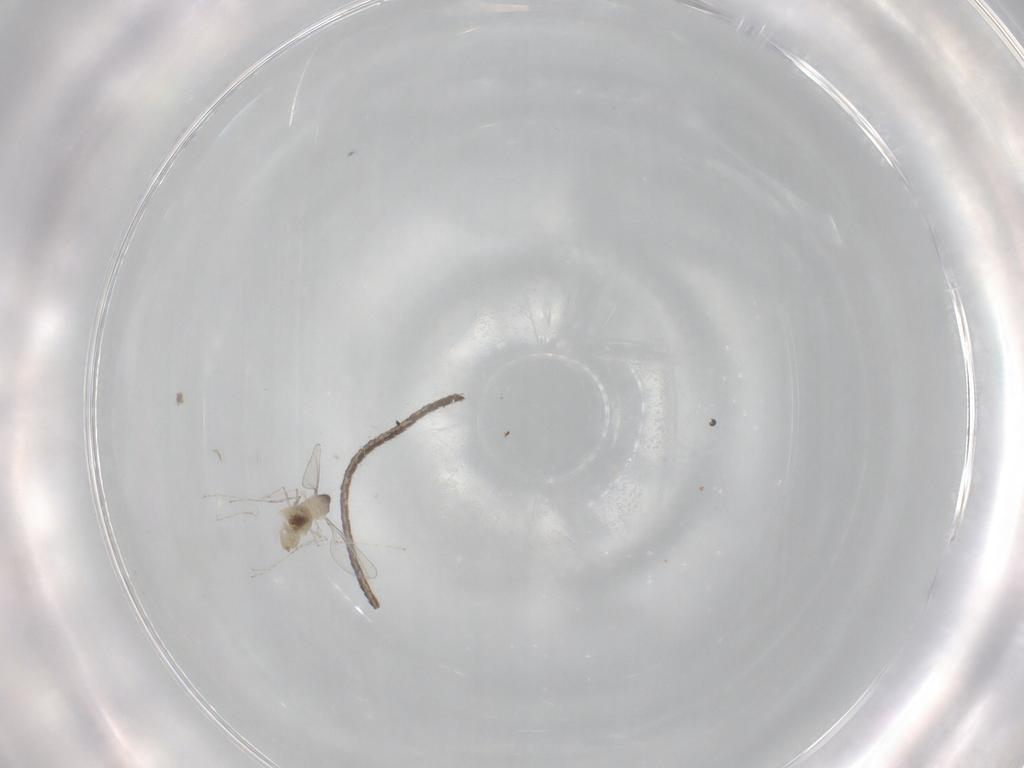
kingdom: Animalia
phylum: Arthropoda
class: Insecta
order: Diptera
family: Cecidomyiidae
